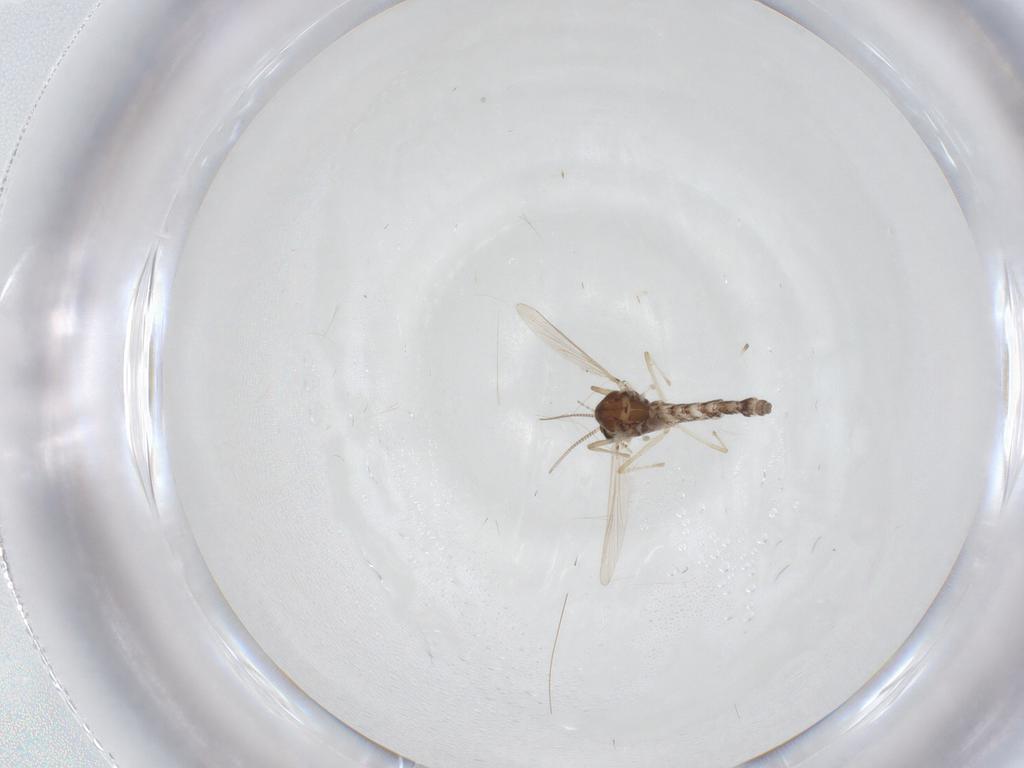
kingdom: Animalia
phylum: Arthropoda
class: Insecta
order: Diptera
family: Chironomidae
